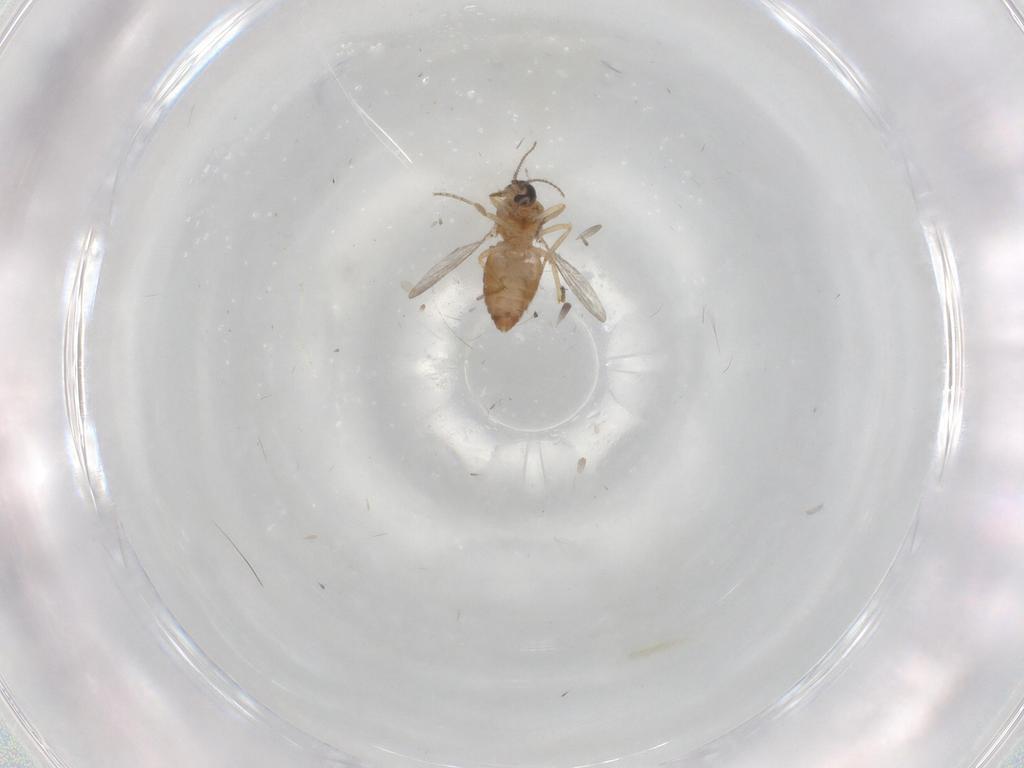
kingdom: Animalia
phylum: Arthropoda
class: Insecta
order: Diptera
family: Ceratopogonidae
